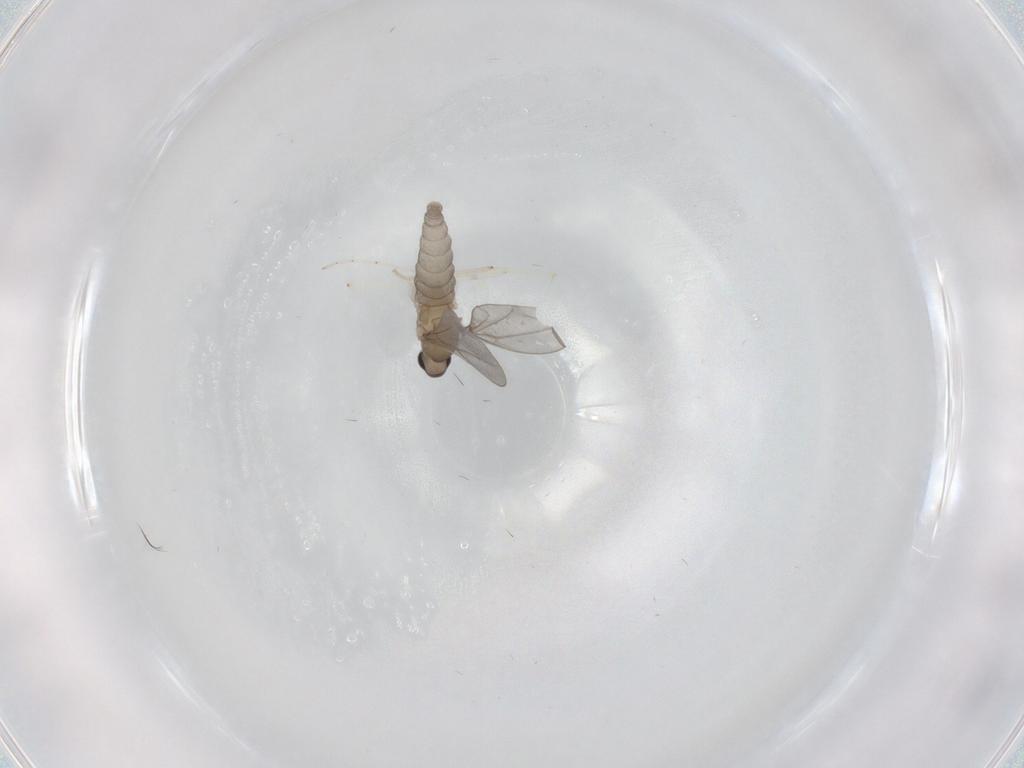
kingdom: Animalia
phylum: Arthropoda
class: Insecta
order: Diptera
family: Cecidomyiidae
